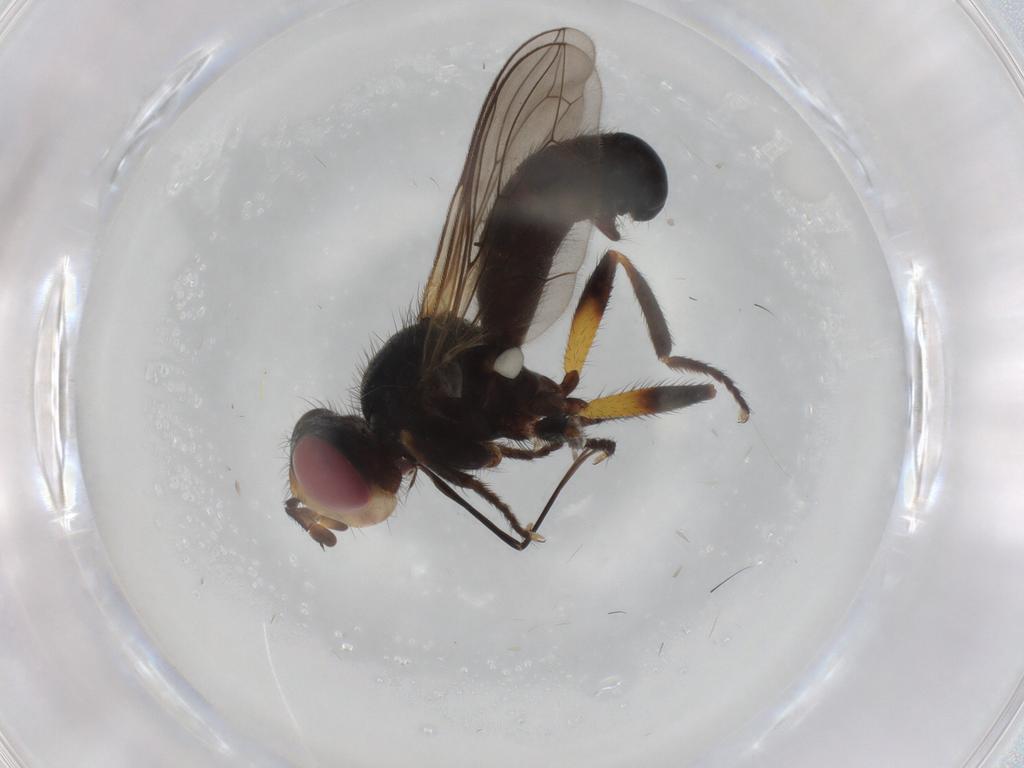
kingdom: Animalia
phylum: Arthropoda
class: Insecta
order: Diptera
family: Conopidae
